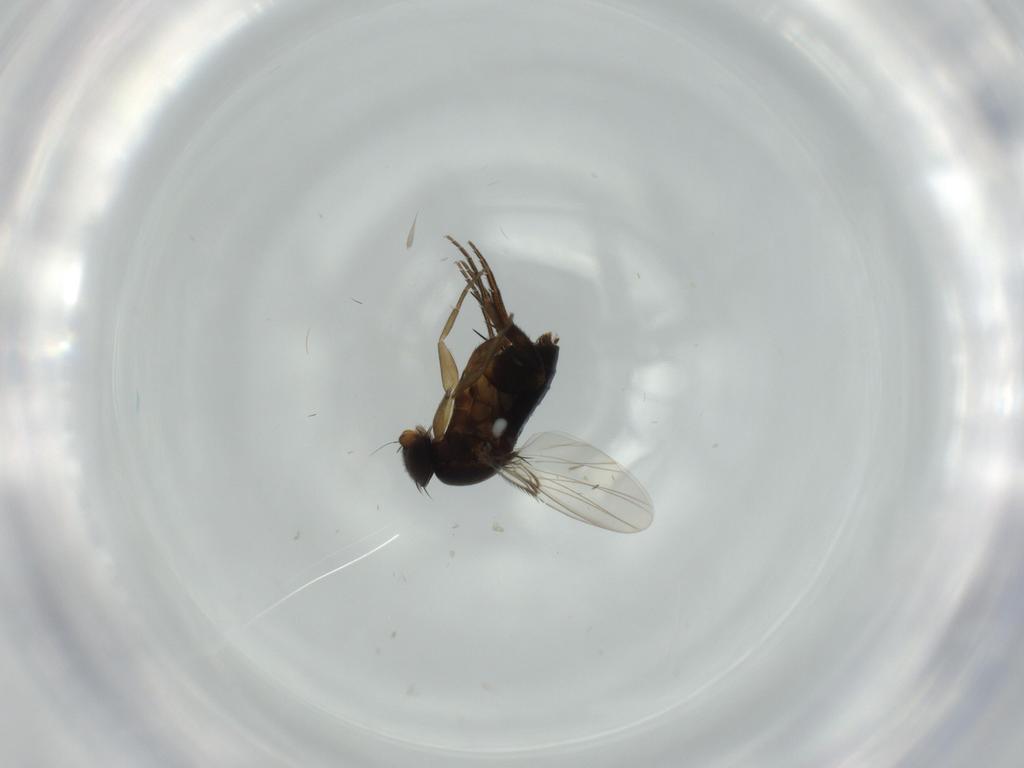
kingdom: Animalia
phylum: Arthropoda
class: Insecta
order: Diptera
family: Phoridae
